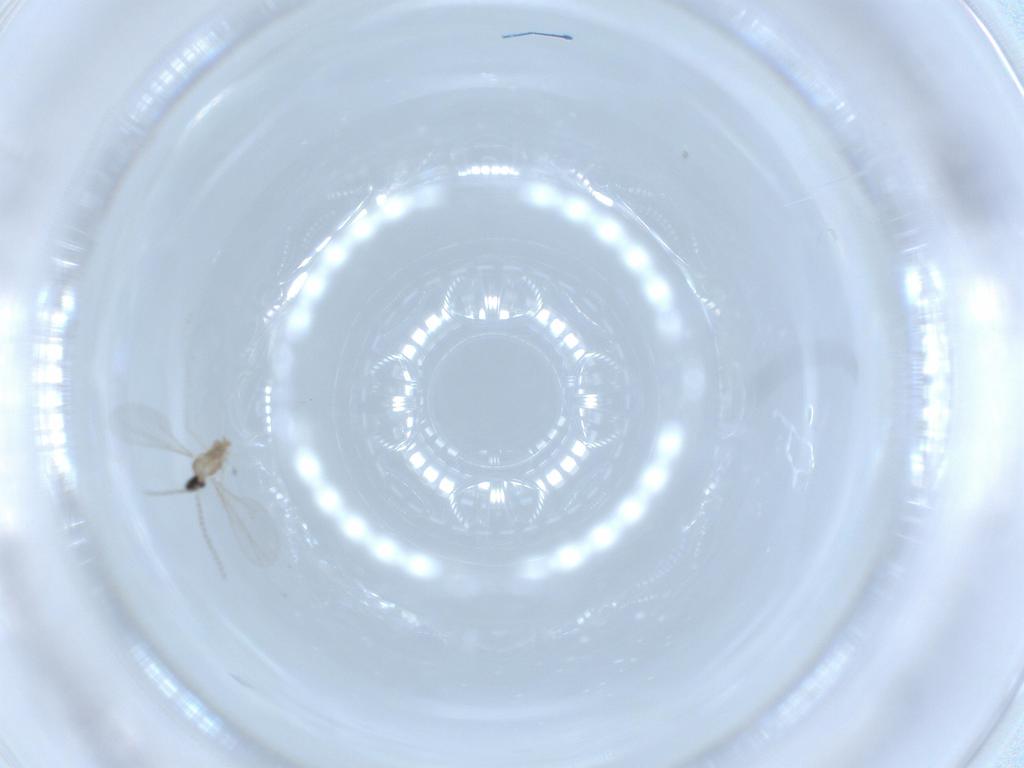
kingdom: Animalia
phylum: Arthropoda
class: Insecta
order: Diptera
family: Cecidomyiidae
